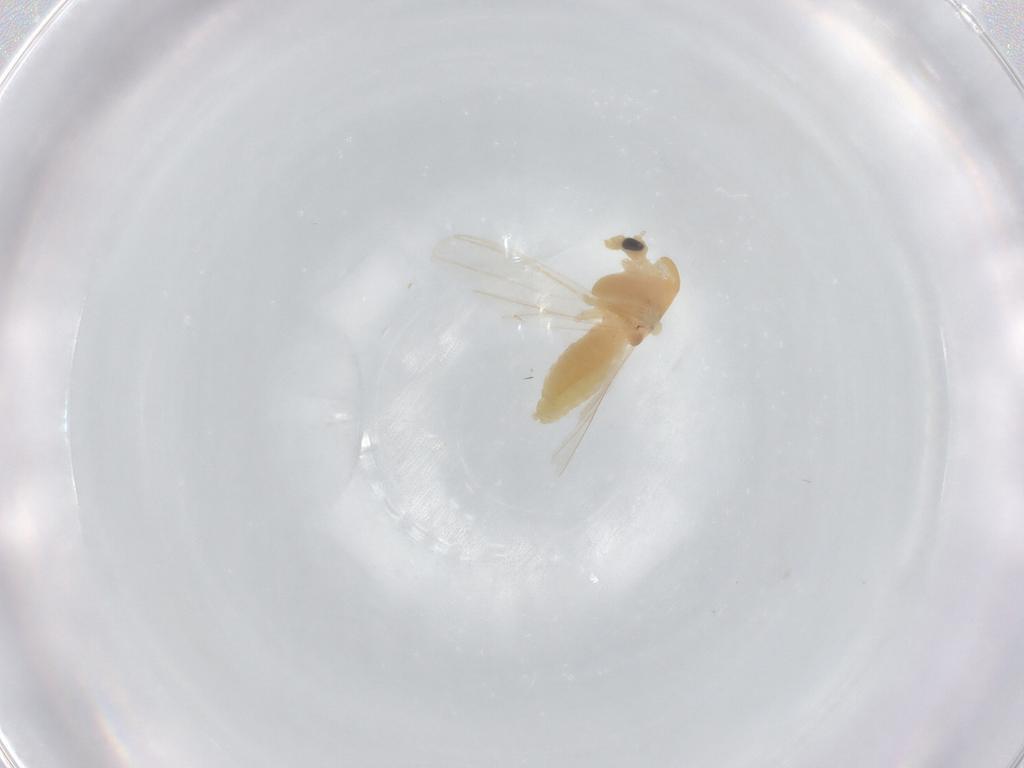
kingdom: Animalia
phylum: Arthropoda
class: Insecta
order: Diptera
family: Chironomidae
